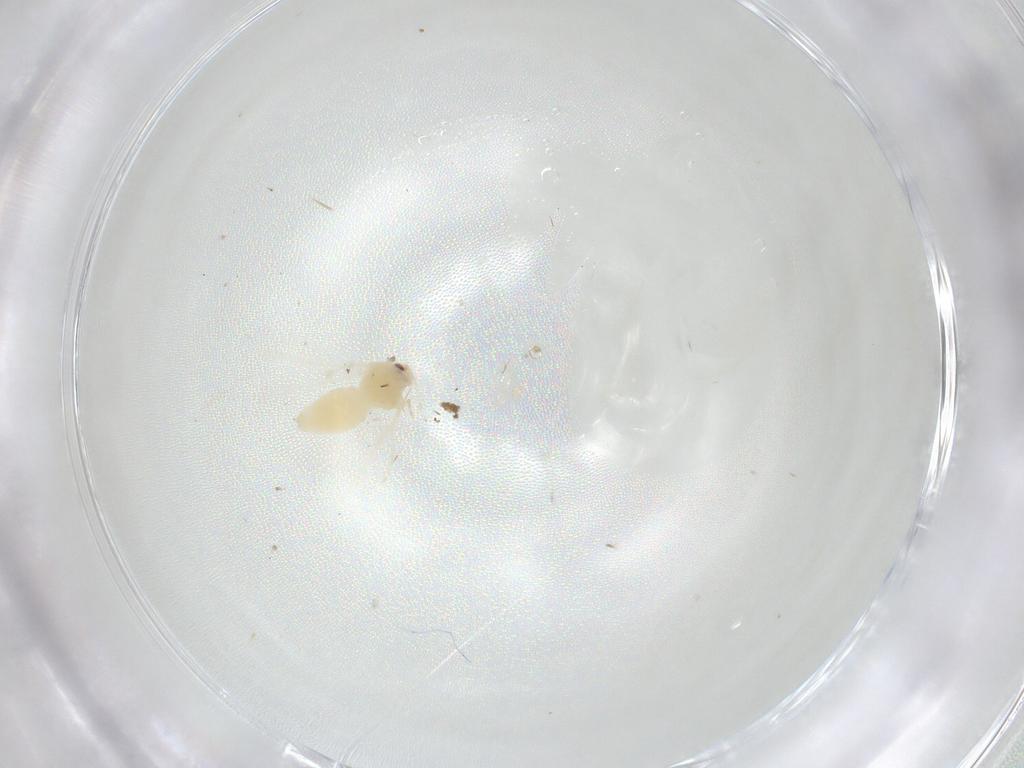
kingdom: Animalia
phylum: Arthropoda
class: Insecta
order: Hemiptera
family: Aleyrodidae
